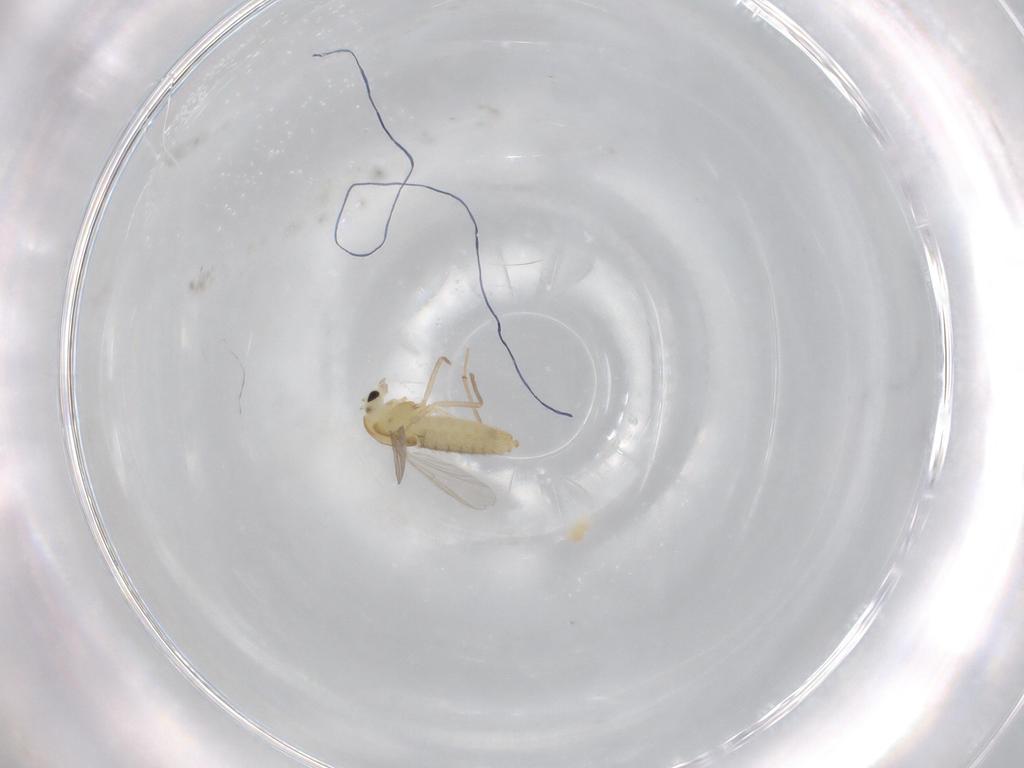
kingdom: Animalia
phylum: Arthropoda
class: Insecta
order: Diptera
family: Chironomidae
